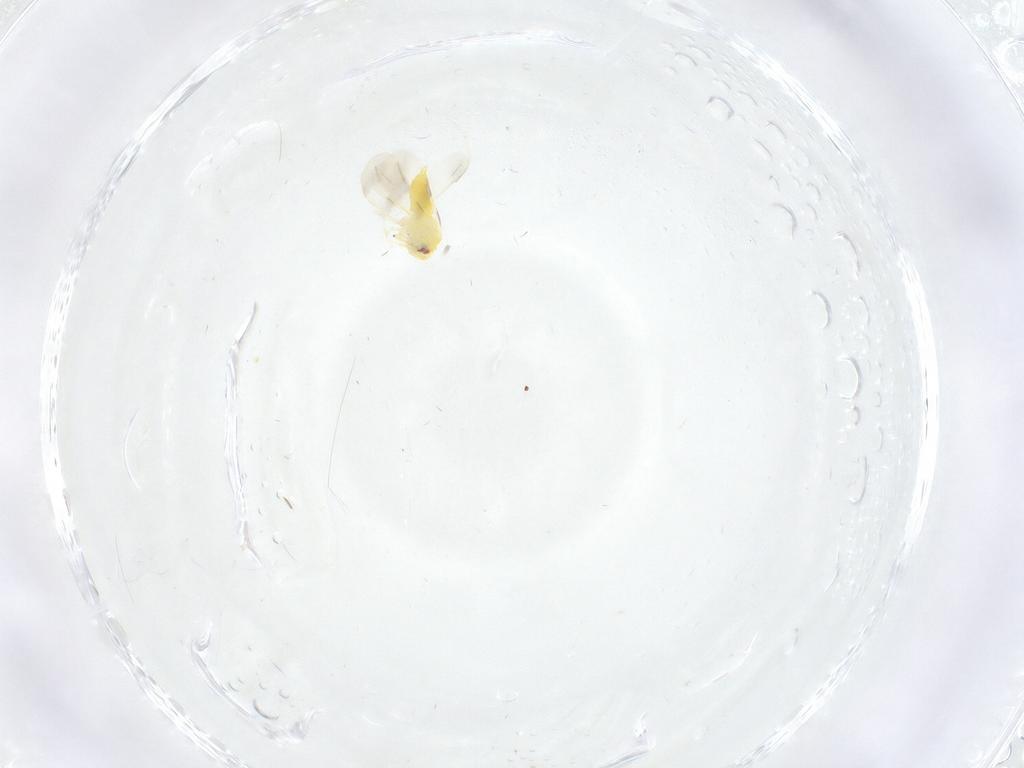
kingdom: Animalia
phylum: Arthropoda
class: Insecta
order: Hemiptera
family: Aleyrodidae
